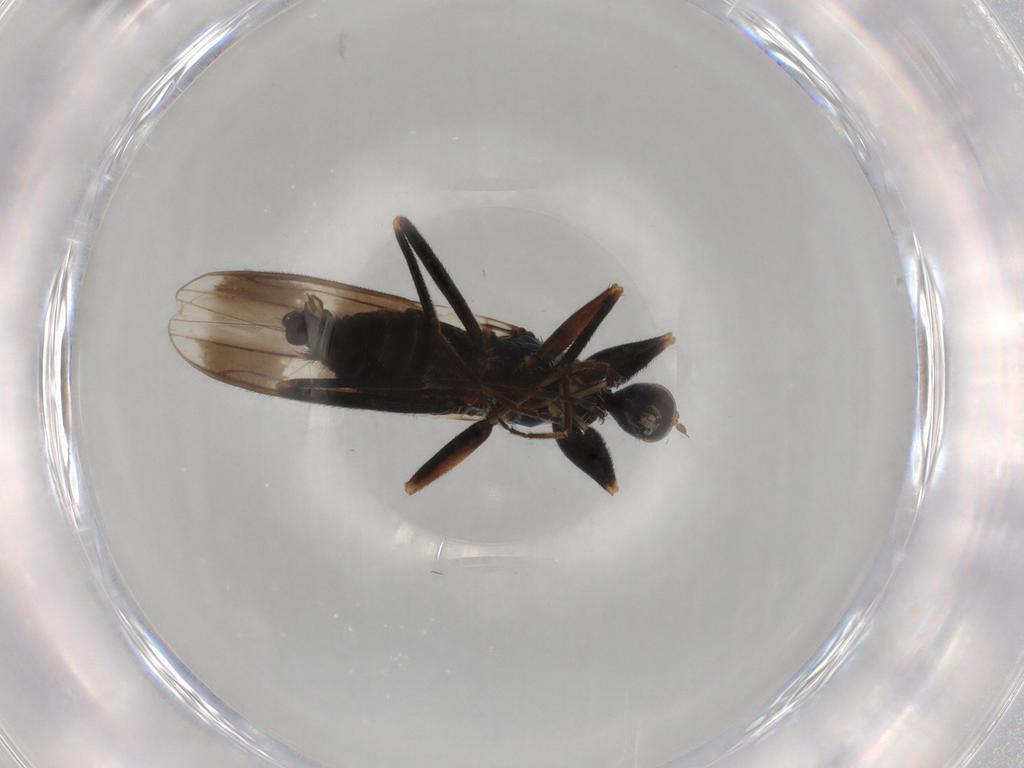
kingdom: Animalia
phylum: Arthropoda
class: Insecta
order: Diptera
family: Hybotidae
